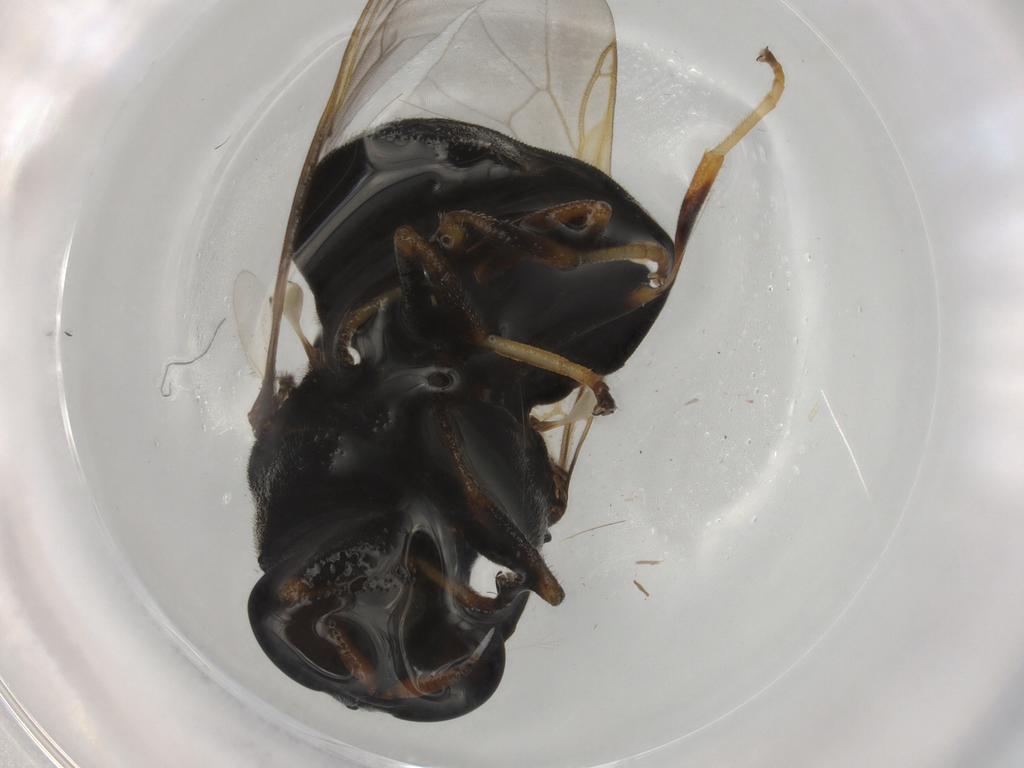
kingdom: Animalia
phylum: Arthropoda
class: Insecta
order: Diptera
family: Stratiomyidae
